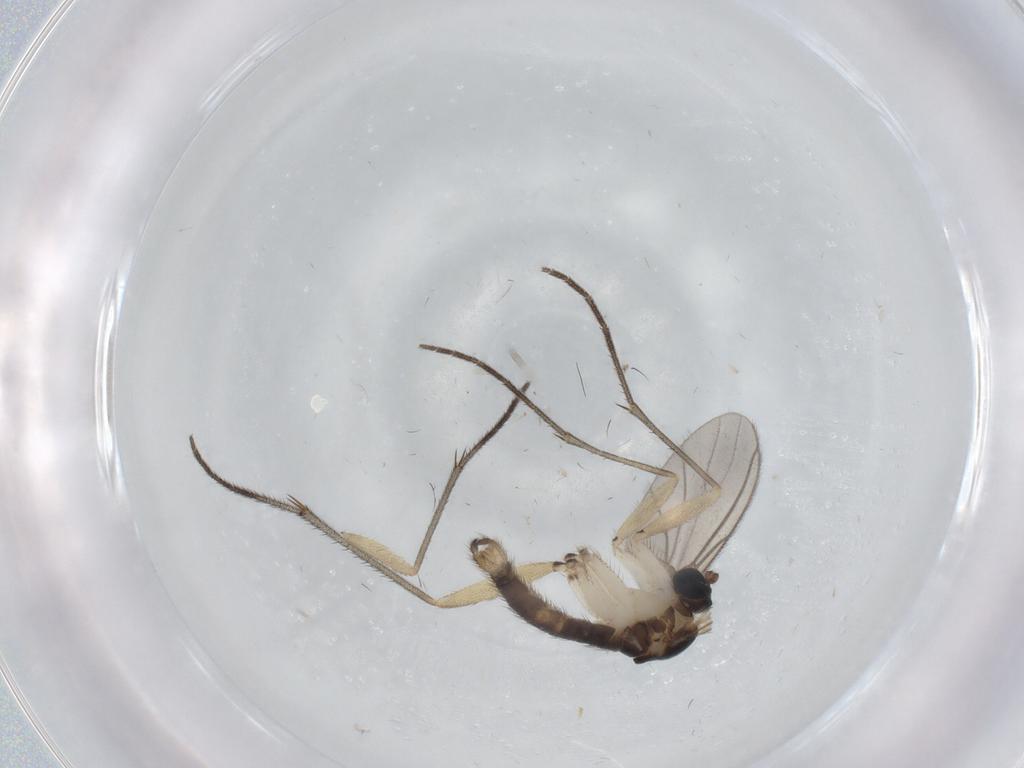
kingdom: Animalia
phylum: Arthropoda
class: Insecta
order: Diptera
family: Sciaridae
